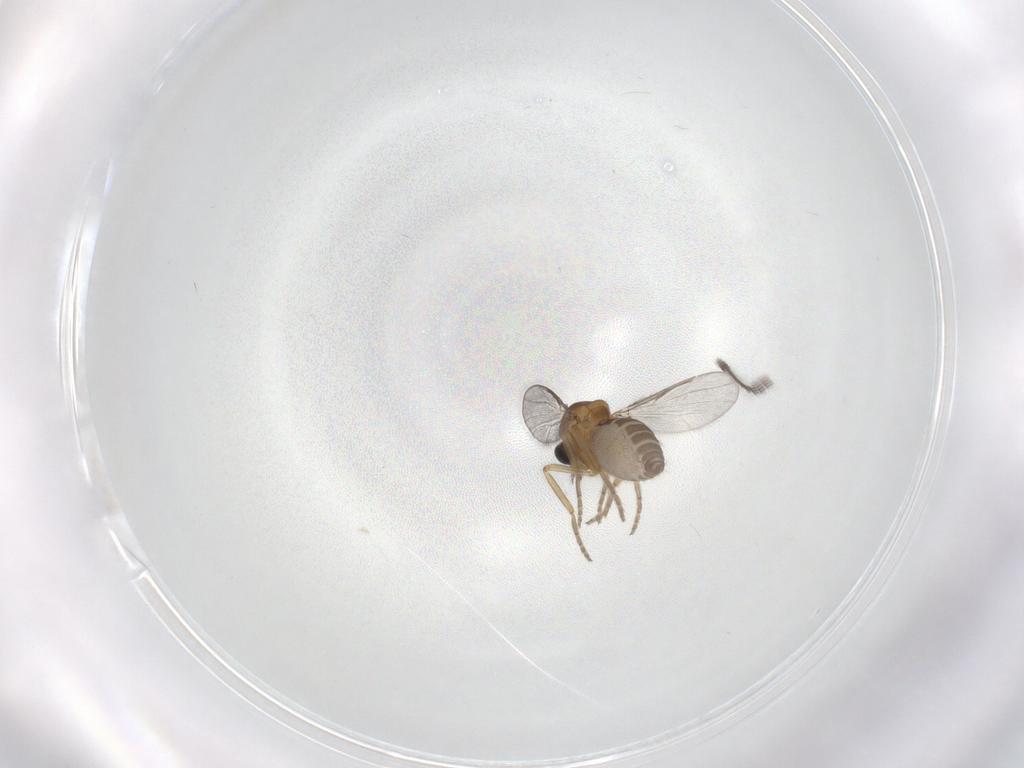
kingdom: Animalia
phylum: Arthropoda
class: Insecta
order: Diptera
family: Ceratopogonidae
